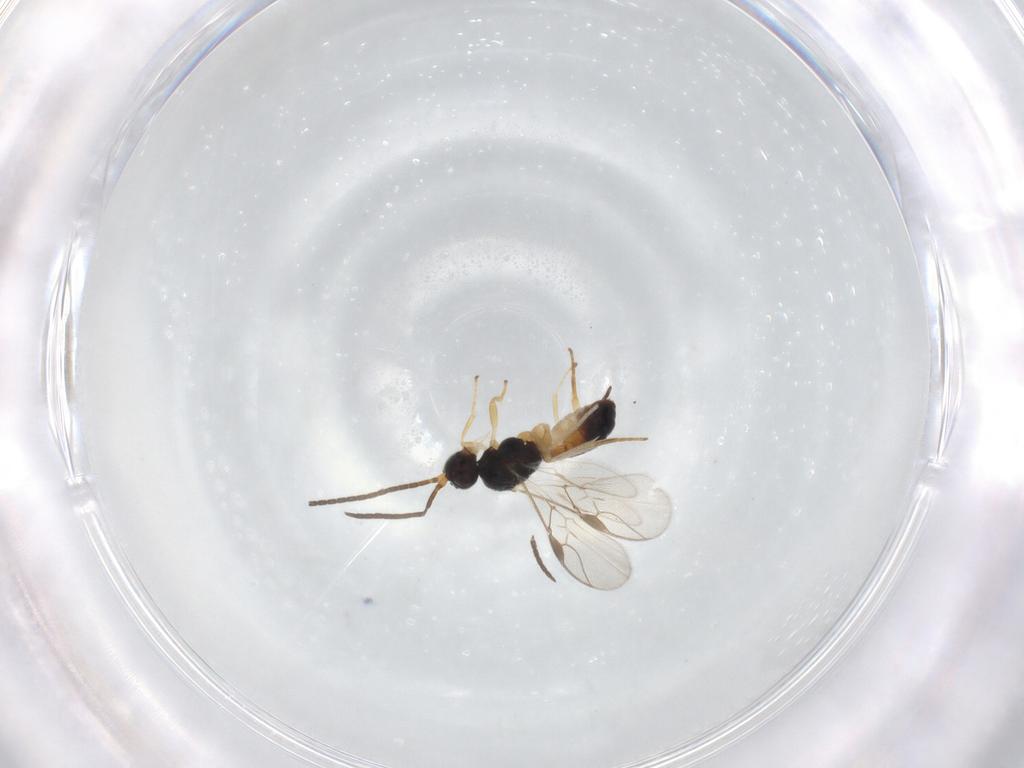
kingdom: Animalia
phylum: Arthropoda
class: Insecta
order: Hymenoptera
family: Braconidae
